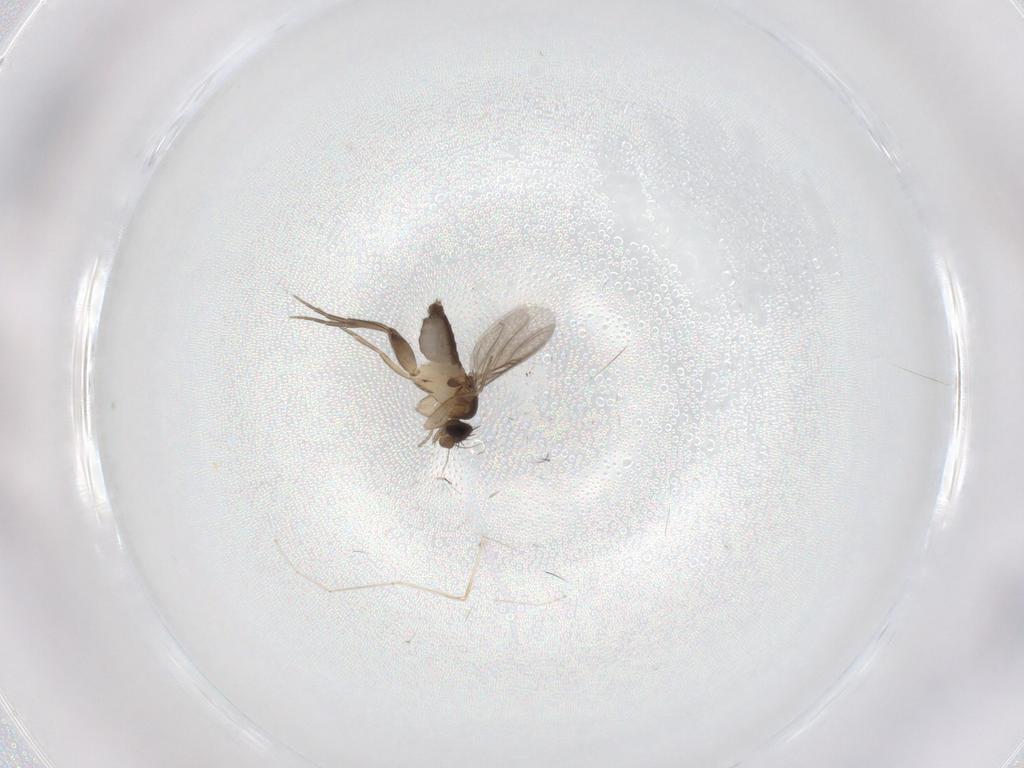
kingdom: Animalia
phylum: Arthropoda
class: Insecta
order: Diptera
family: Phoridae
